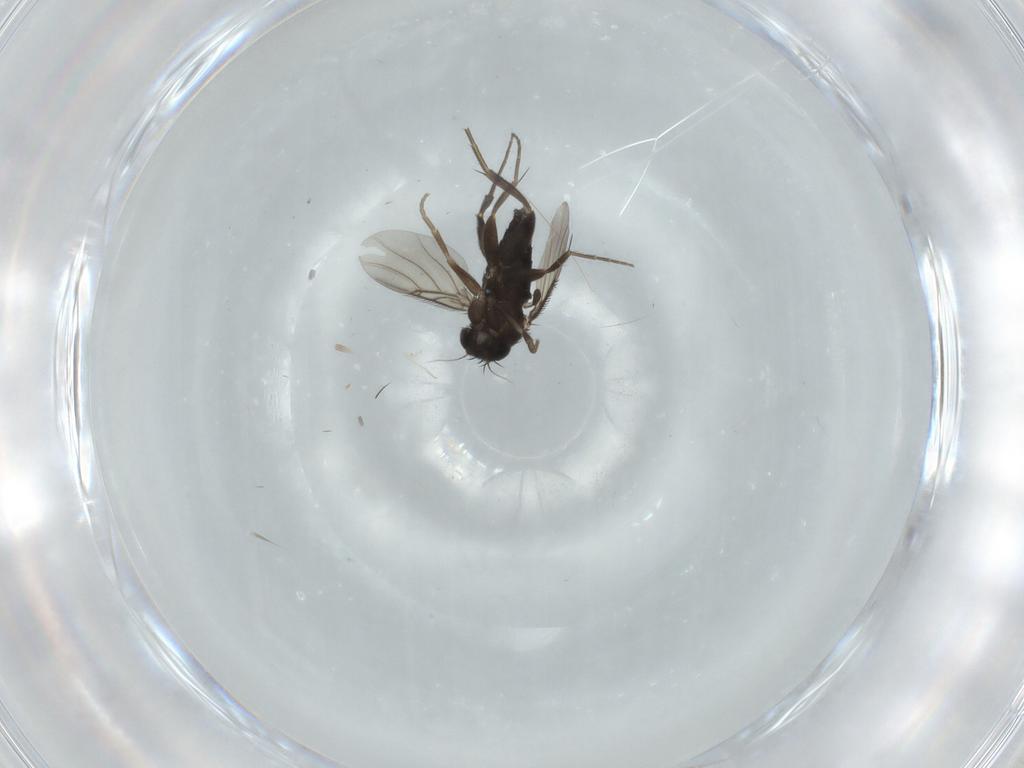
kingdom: Animalia
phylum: Arthropoda
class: Insecta
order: Diptera
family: Cecidomyiidae
